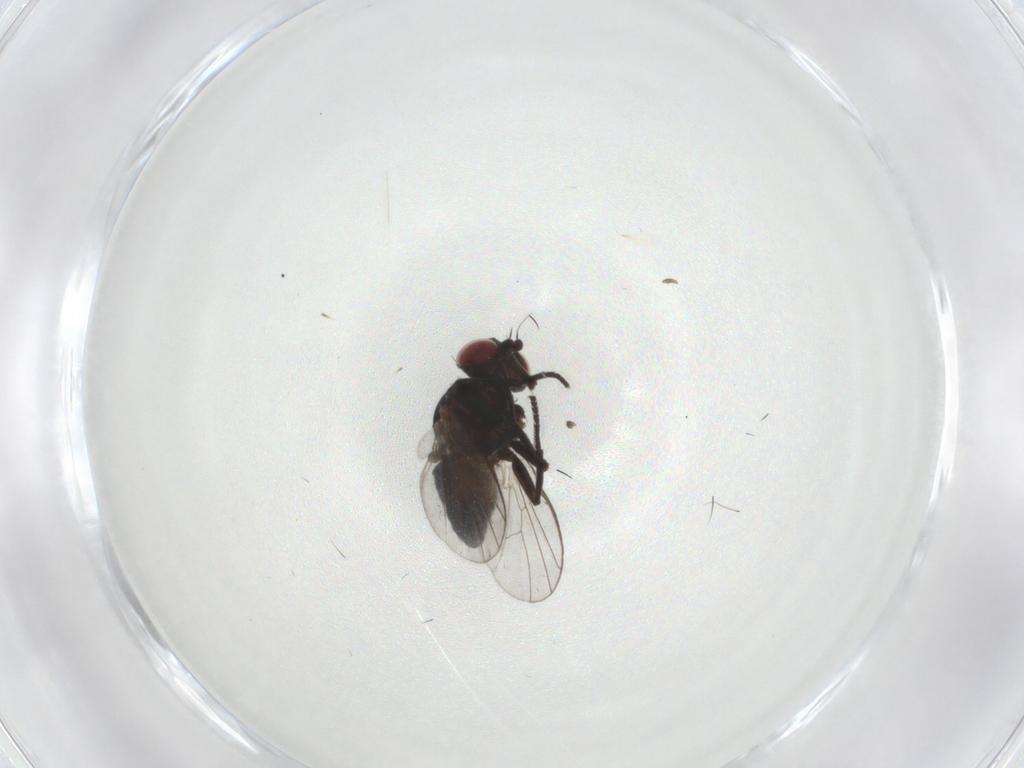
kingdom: Animalia
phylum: Arthropoda
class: Insecta
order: Diptera
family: Agromyzidae
